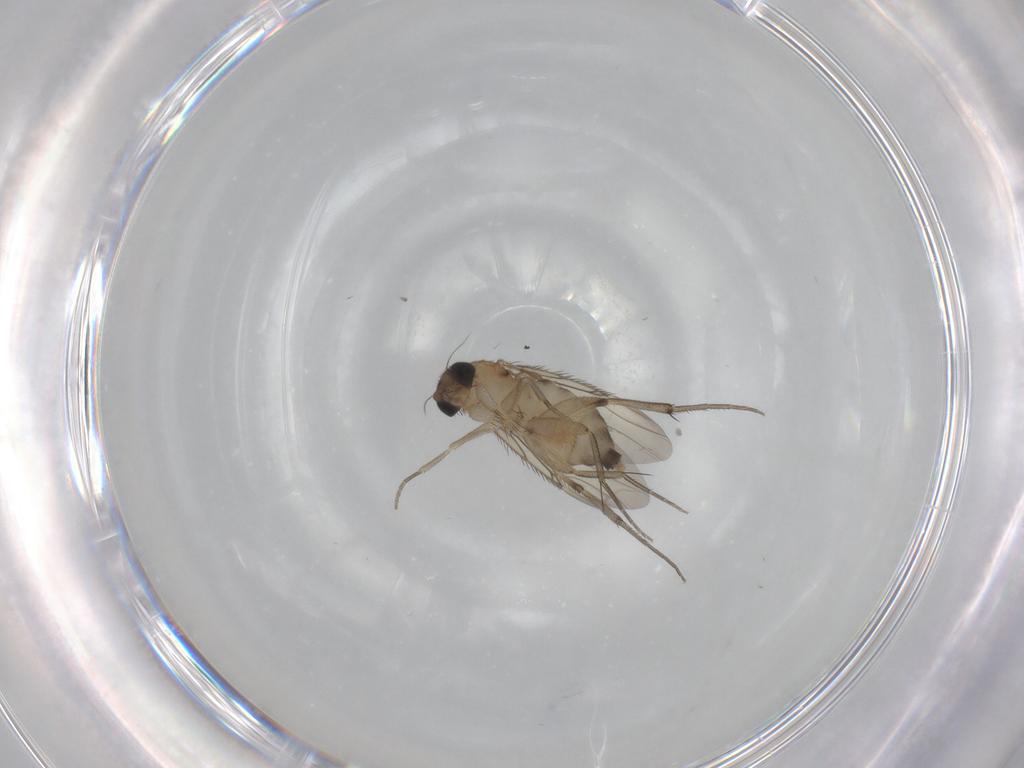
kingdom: Animalia
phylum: Arthropoda
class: Insecta
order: Diptera
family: Phoridae
